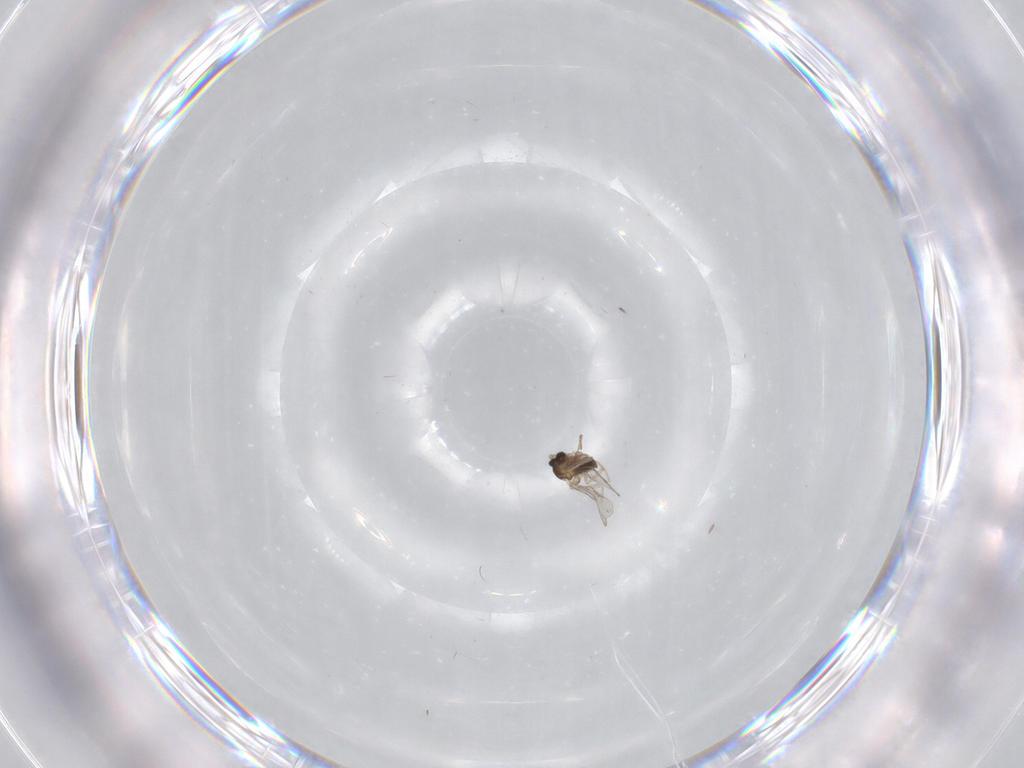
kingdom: Animalia
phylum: Arthropoda
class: Insecta
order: Diptera
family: Cecidomyiidae
